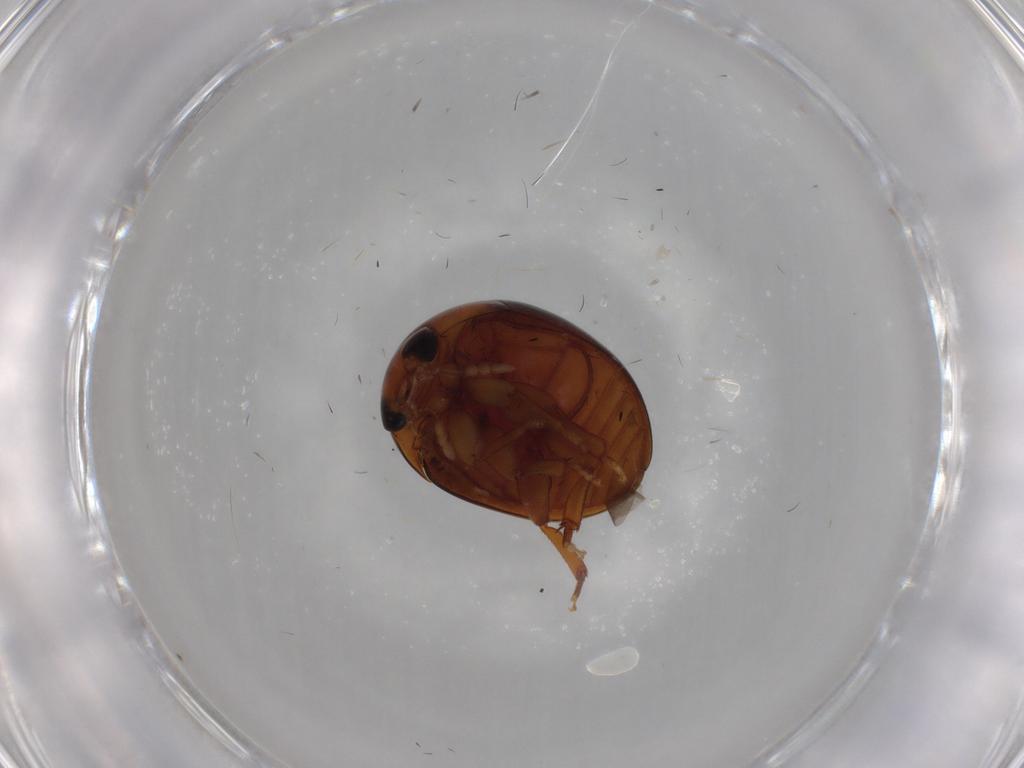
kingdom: Animalia
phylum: Arthropoda
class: Insecta
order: Coleoptera
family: Phalacridae
